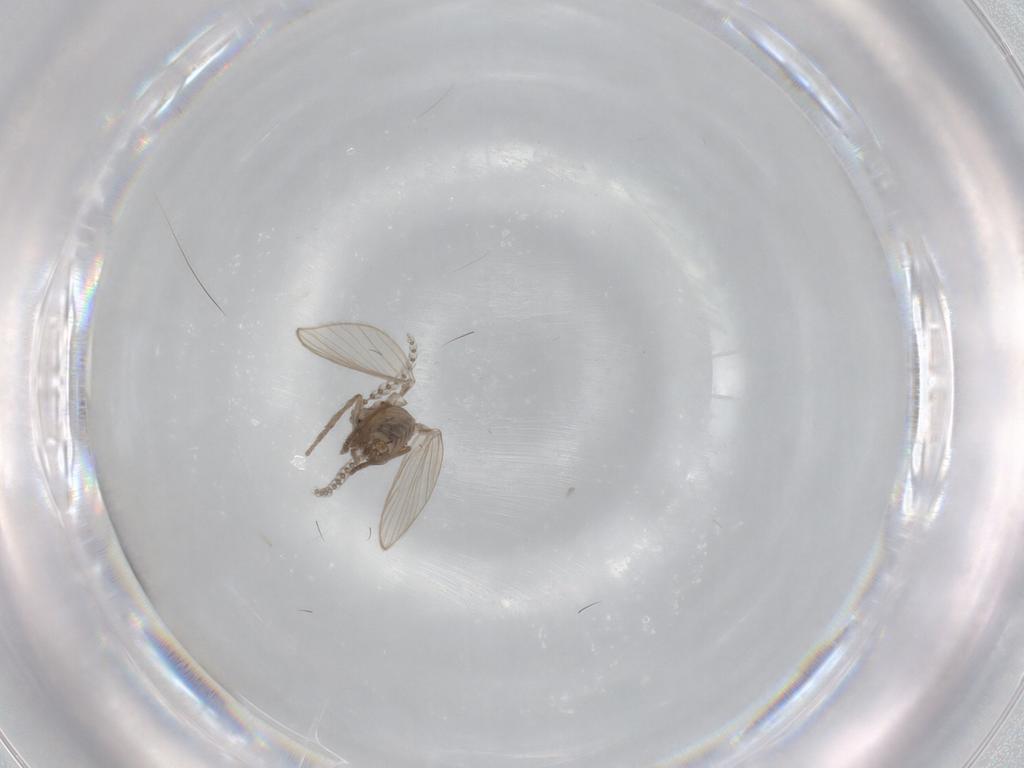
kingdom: Animalia
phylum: Arthropoda
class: Insecta
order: Diptera
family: Psychodidae
